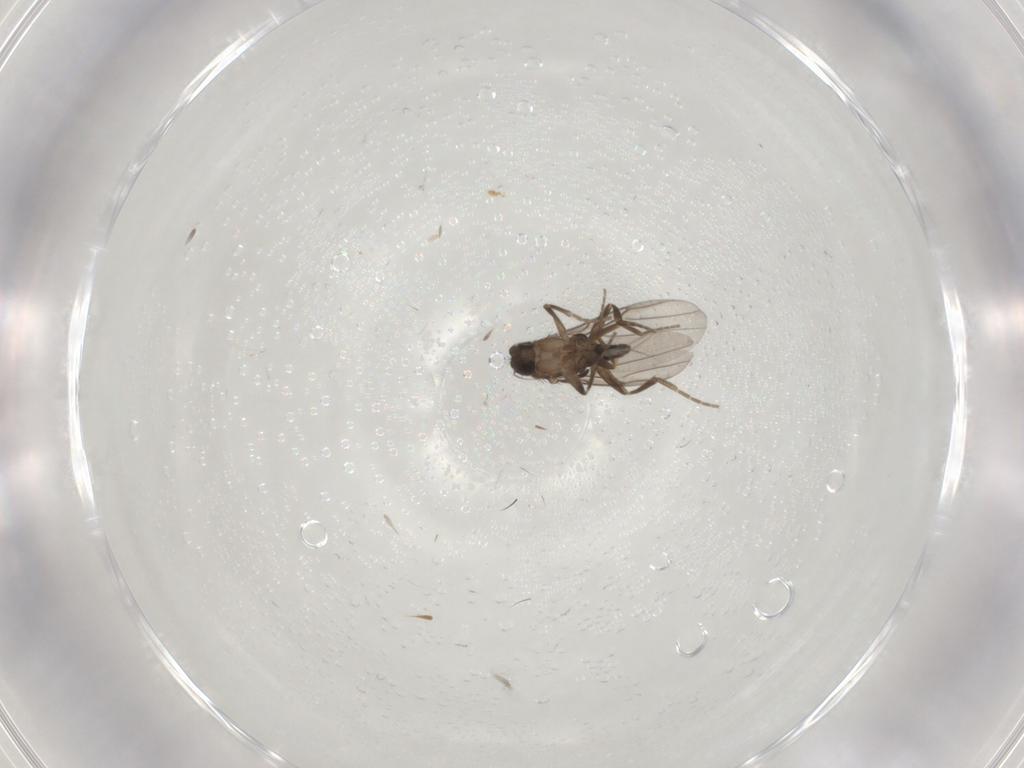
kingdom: Animalia
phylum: Arthropoda
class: Insecta
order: Diptera
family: Phoridae
